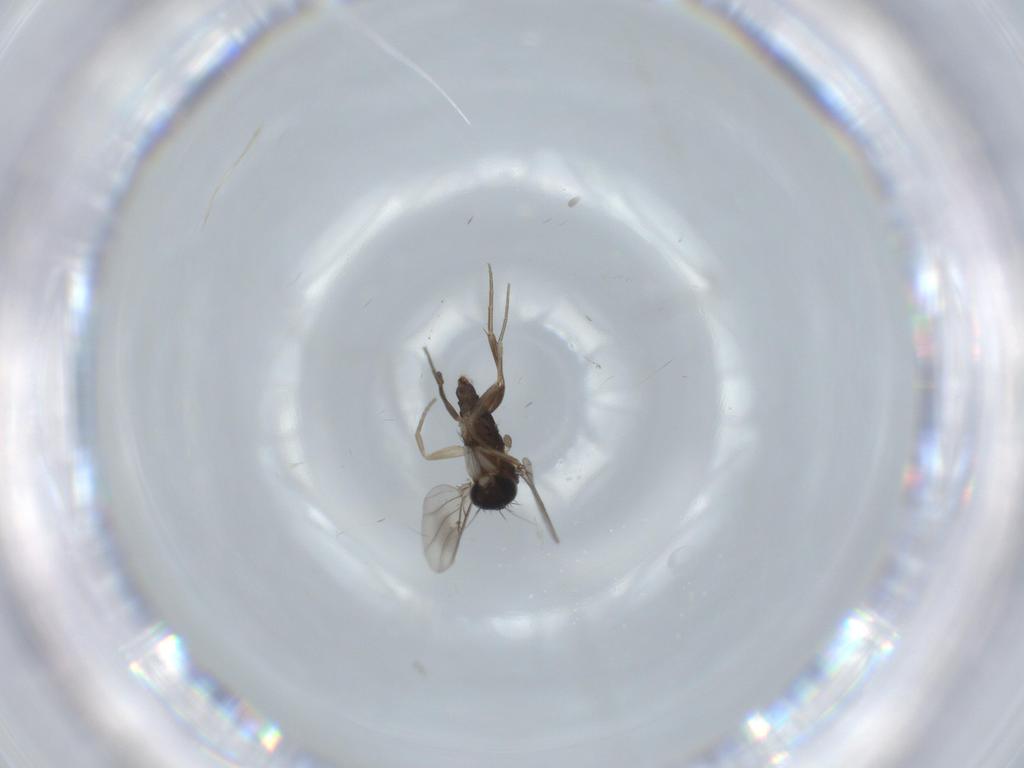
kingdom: Animalia
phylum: Arthropoda
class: Insecta
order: Diptera
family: Phoridae
